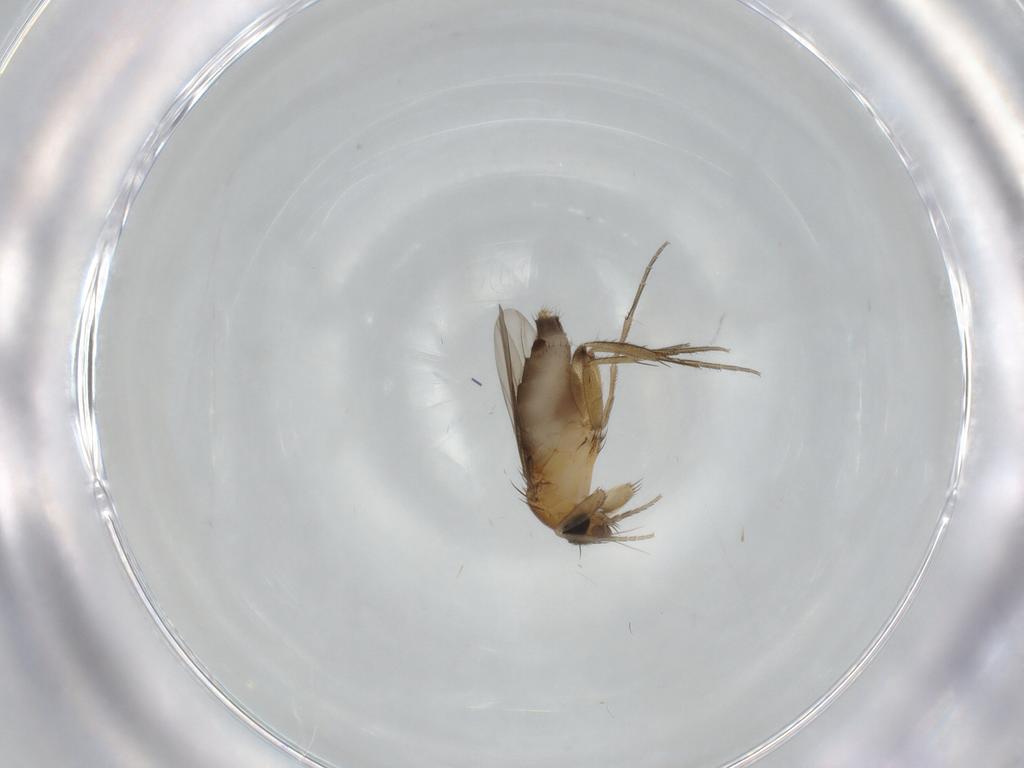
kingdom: Animalia
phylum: Arthropoda
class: Insecta
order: Diptera
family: Phoridae
